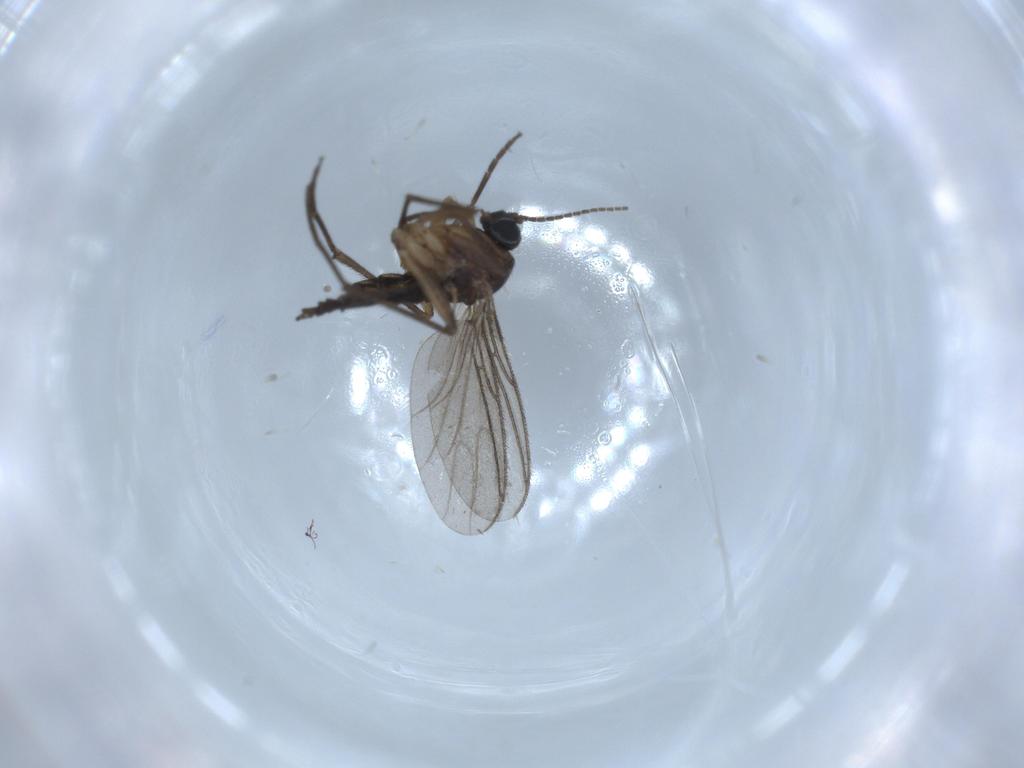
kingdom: Animalia
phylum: Arthropoda
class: Insecta
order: Diptera
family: Sciaridae
